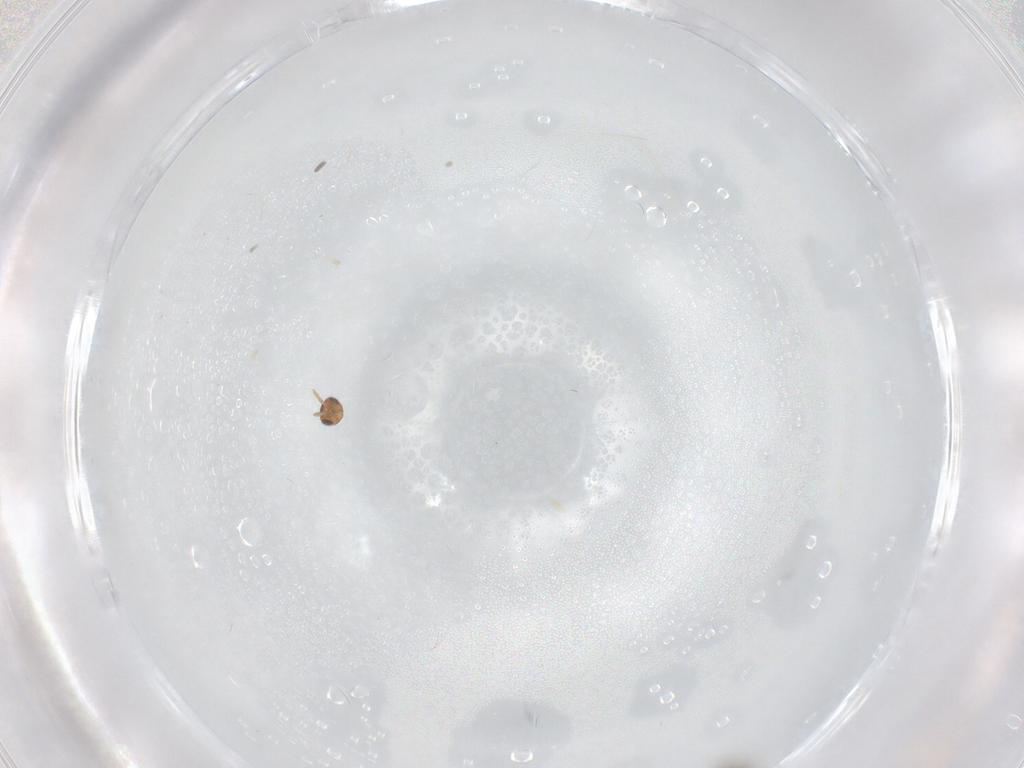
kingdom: Animalia
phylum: Arthropoda
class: Insecta
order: Hymenoptera
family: Aphelinidae
